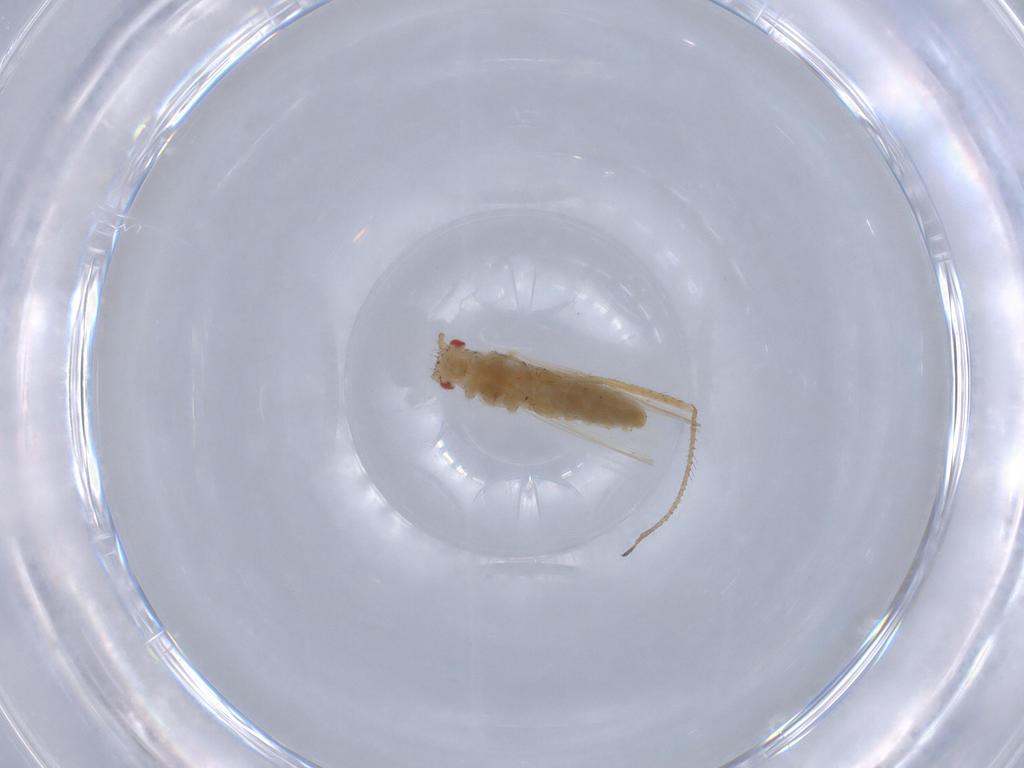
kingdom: Animalia
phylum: Arthropoda
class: Insecta
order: Hemiptera
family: Aphididae
